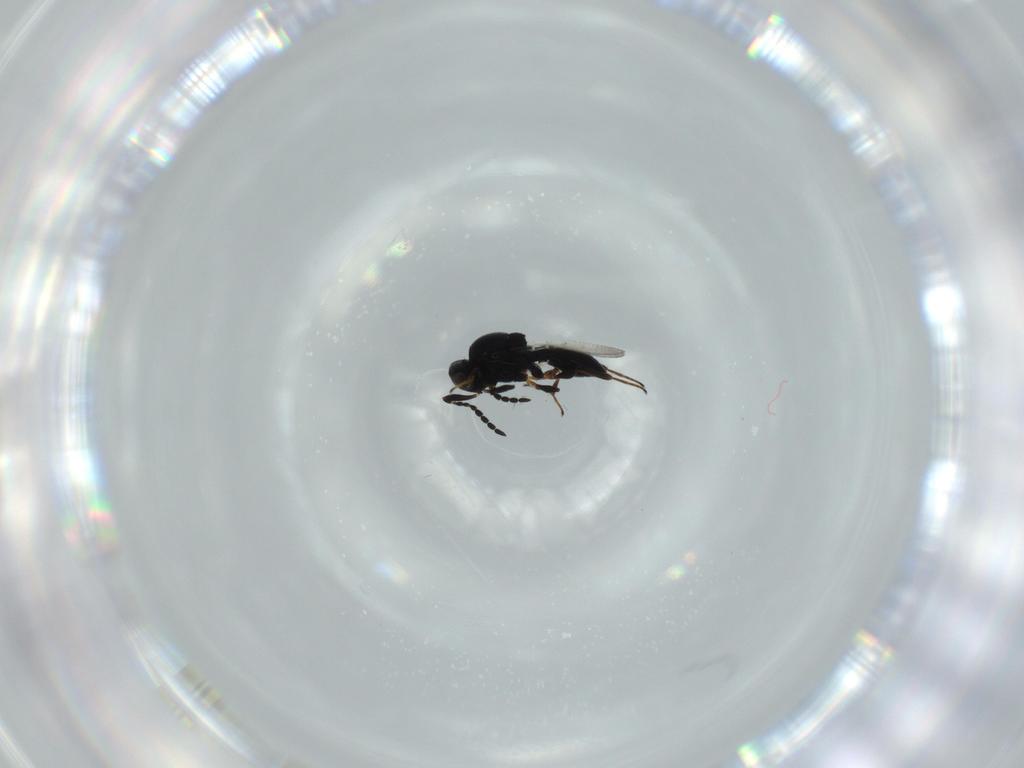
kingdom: Animalia
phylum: Arthropoda
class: Insecta
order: Hymenoptera
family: Platygastridae
